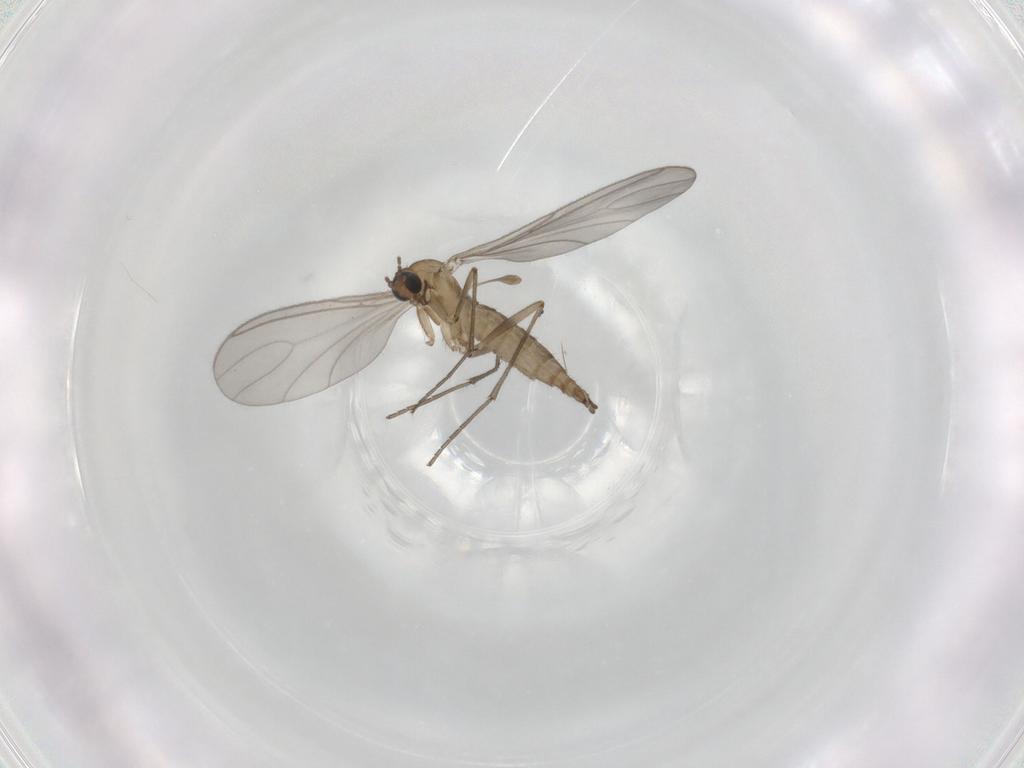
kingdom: Animalia
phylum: Arthropoda
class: Insecta
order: Diptera
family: Sciaridae
